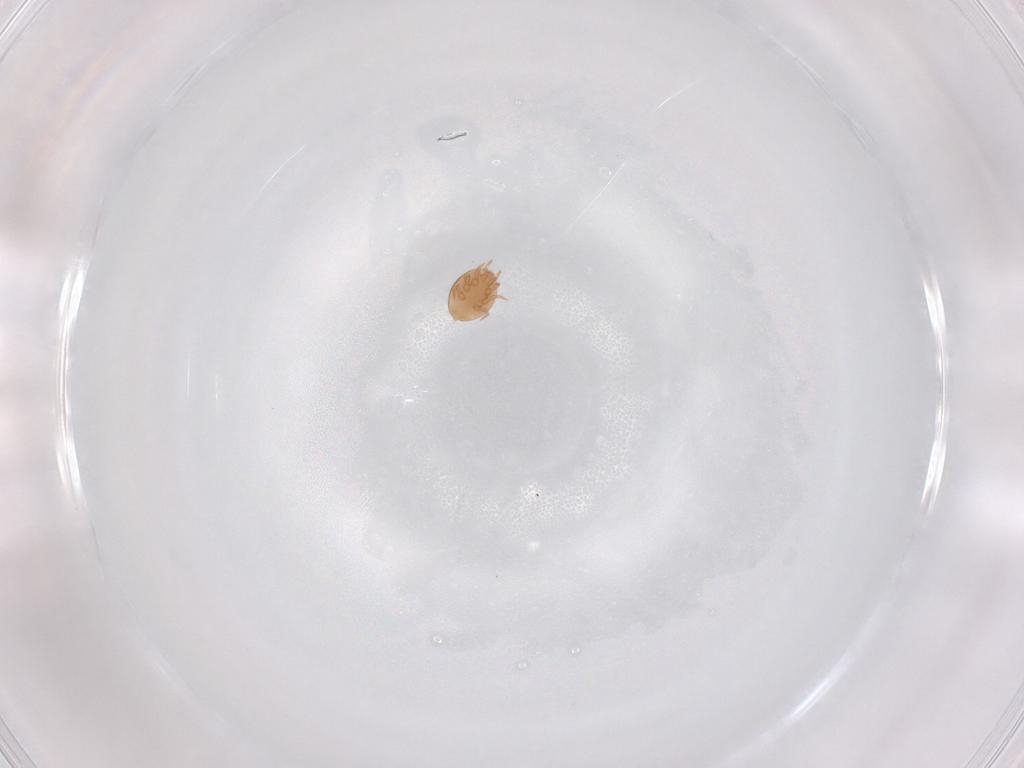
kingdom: Animalia
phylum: Arthropoda
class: Arachnida
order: Mesostigmata
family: Trematuridae
